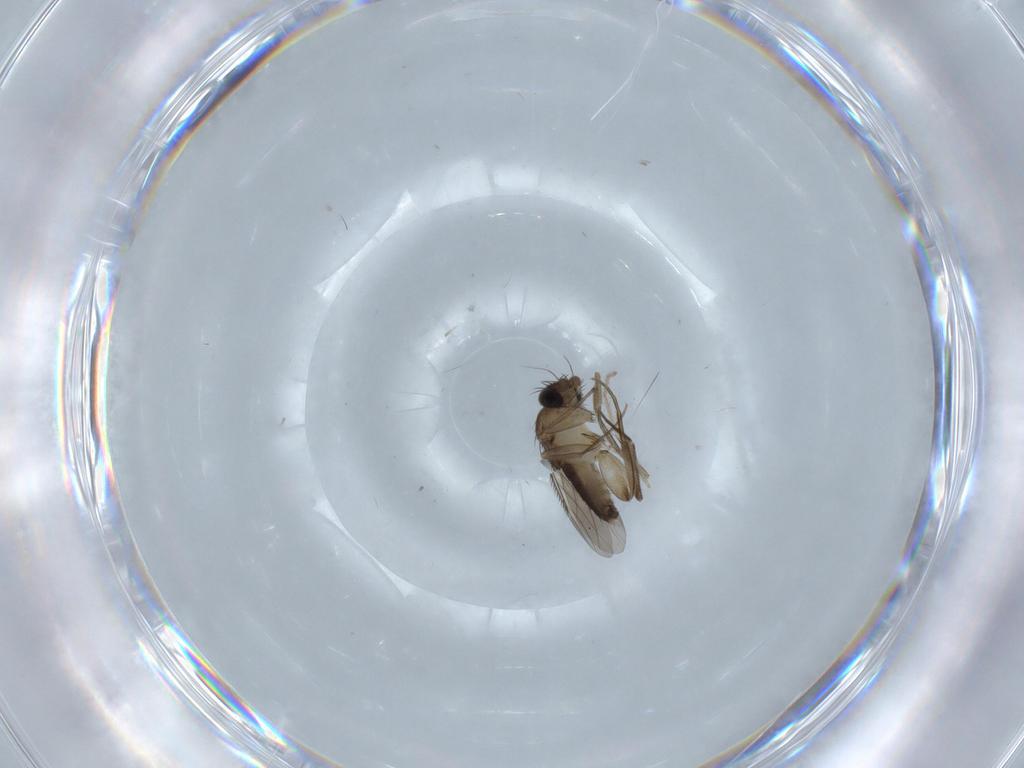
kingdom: Animalia
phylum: Arthropoda
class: Insecta
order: Diptera
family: Phoridae
